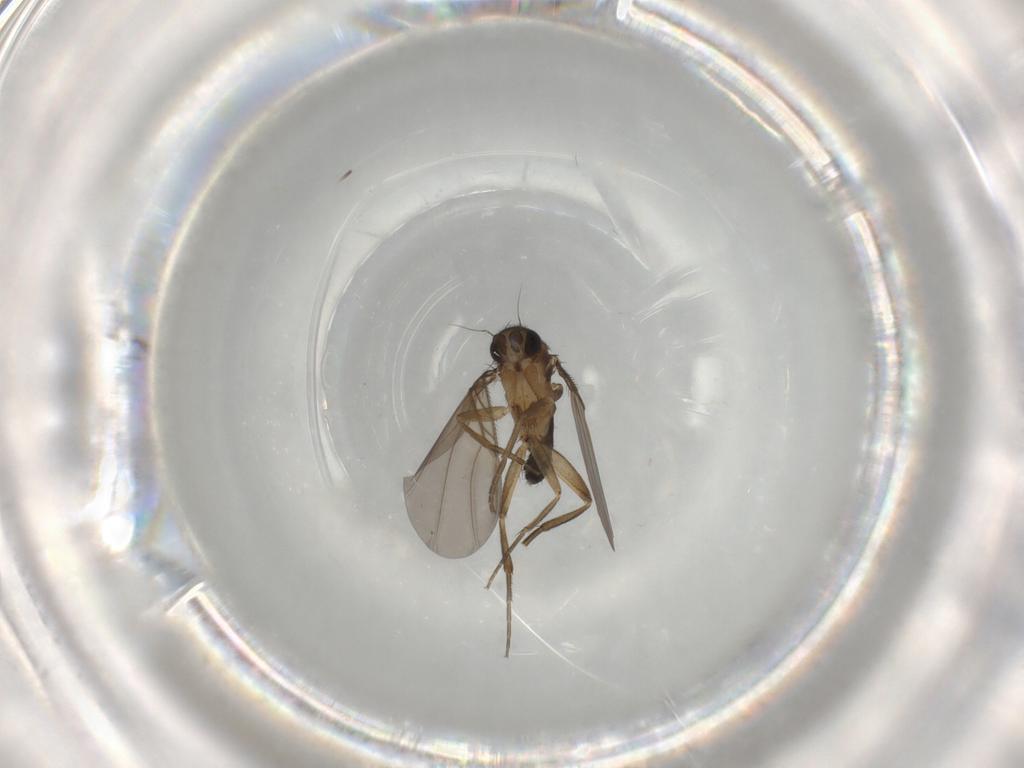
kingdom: Animalia
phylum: Arthropoda
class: Insecta
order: Diptera
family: Phoridae
